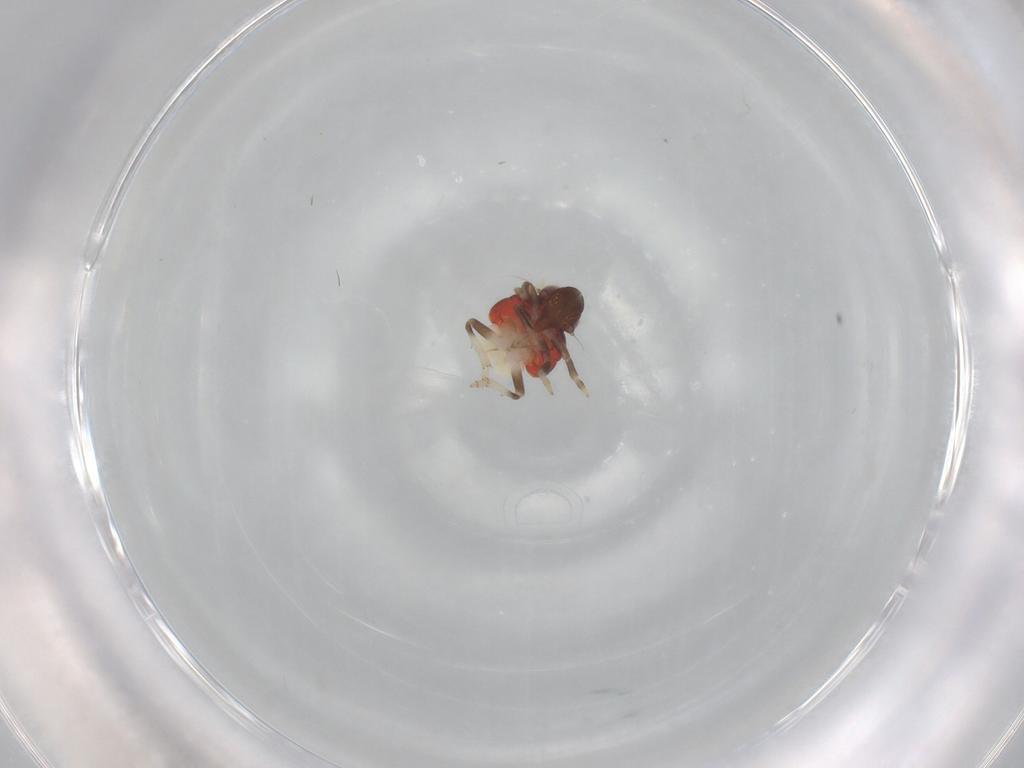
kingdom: Animalia
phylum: Arthropoda
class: Insecta
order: Hemiptera
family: Nogodinidae
